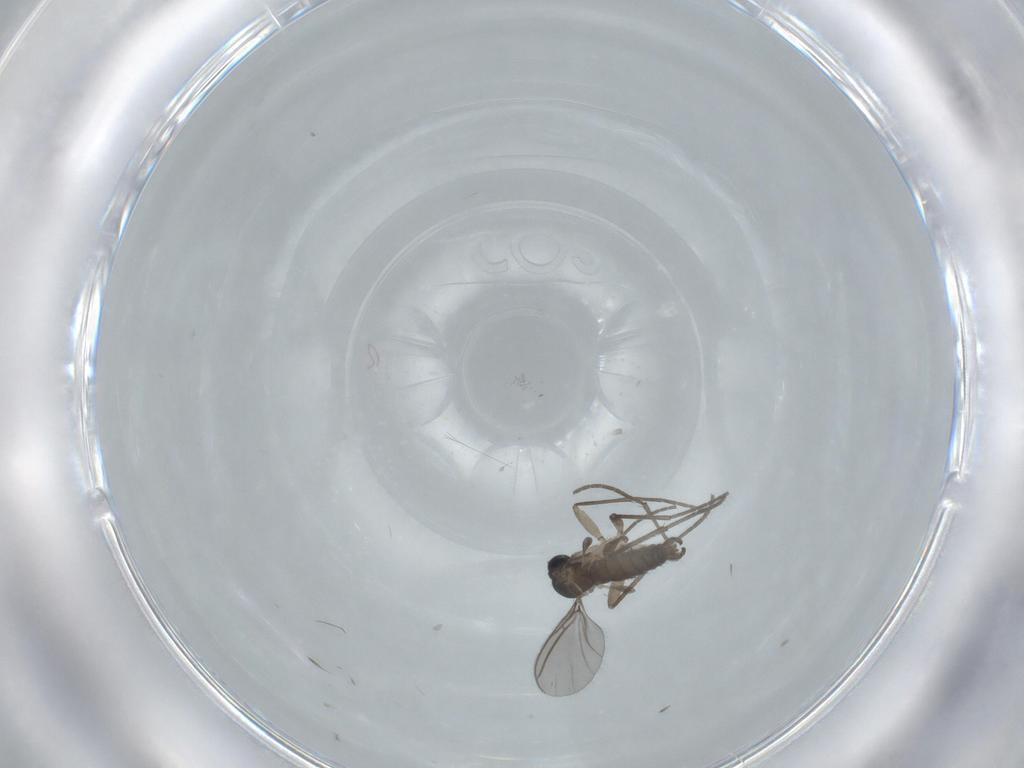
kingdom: Animalia
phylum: Arthropoda
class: Insecta
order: Diptera
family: Sciaridae
